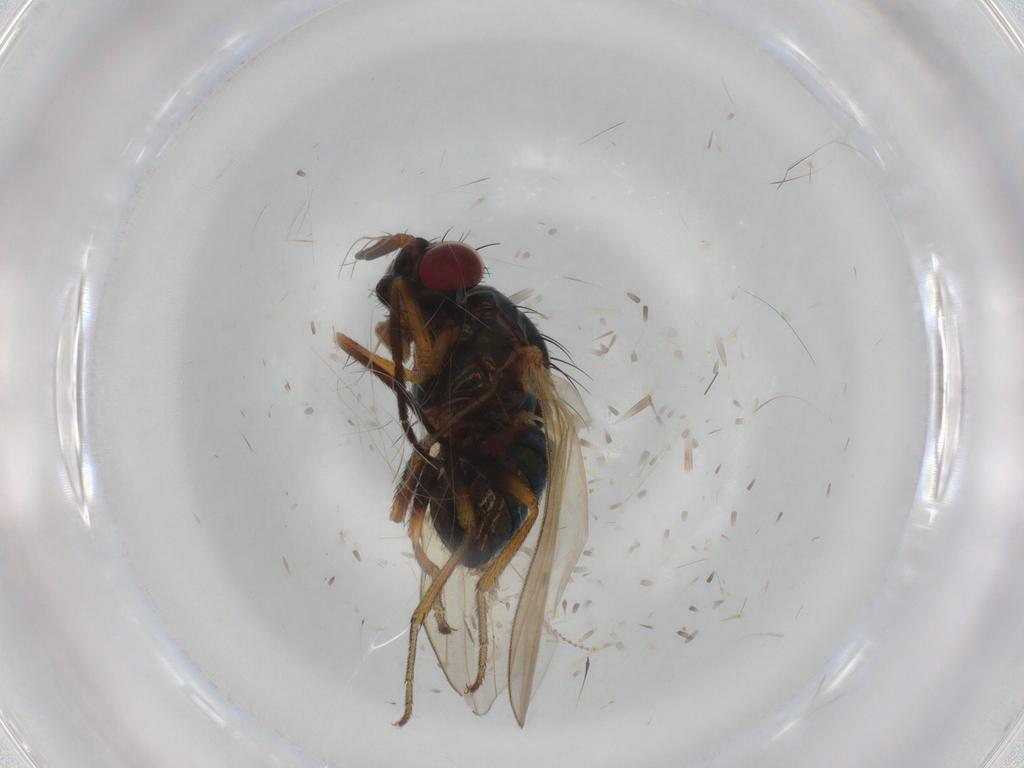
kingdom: Animalia
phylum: Arthropoda
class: Insecta
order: Diptera
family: Lauxaniidae
